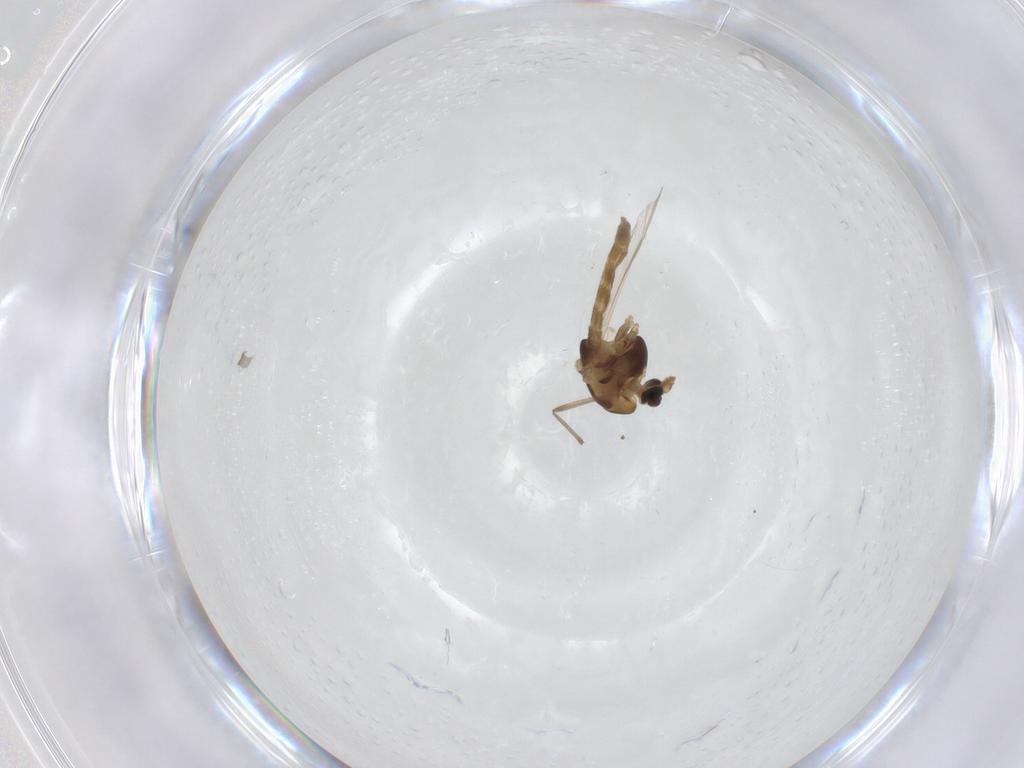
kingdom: Animalia
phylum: Arthropoda
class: Insecta
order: Diptera
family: Chironomidae
